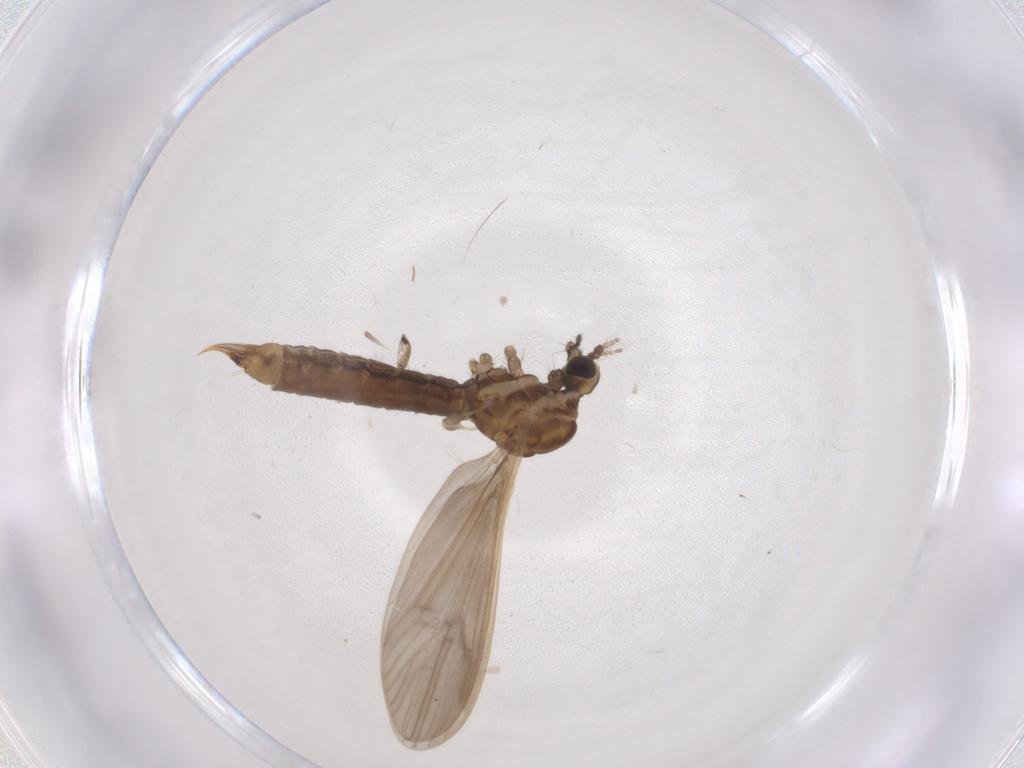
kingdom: Animalia
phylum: Arthropoda
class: Insecta
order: Diptera
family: Limoniidae
